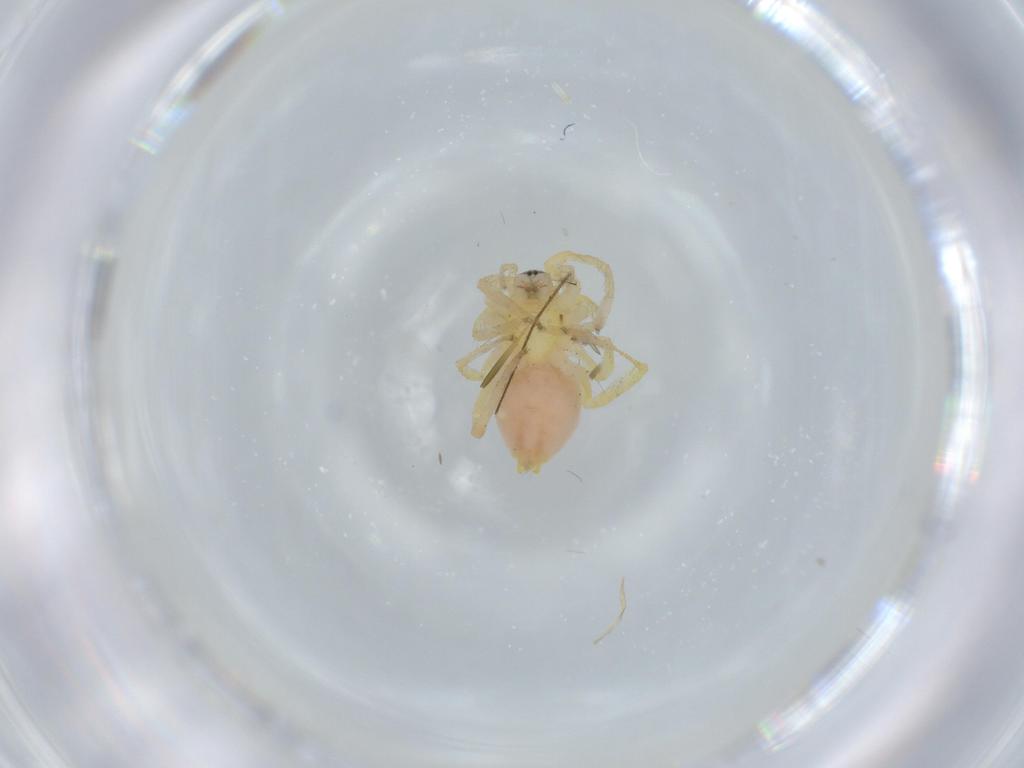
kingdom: Animalia
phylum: Arthropoda
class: Arachnida
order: Araneae
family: Anyphaenidae
